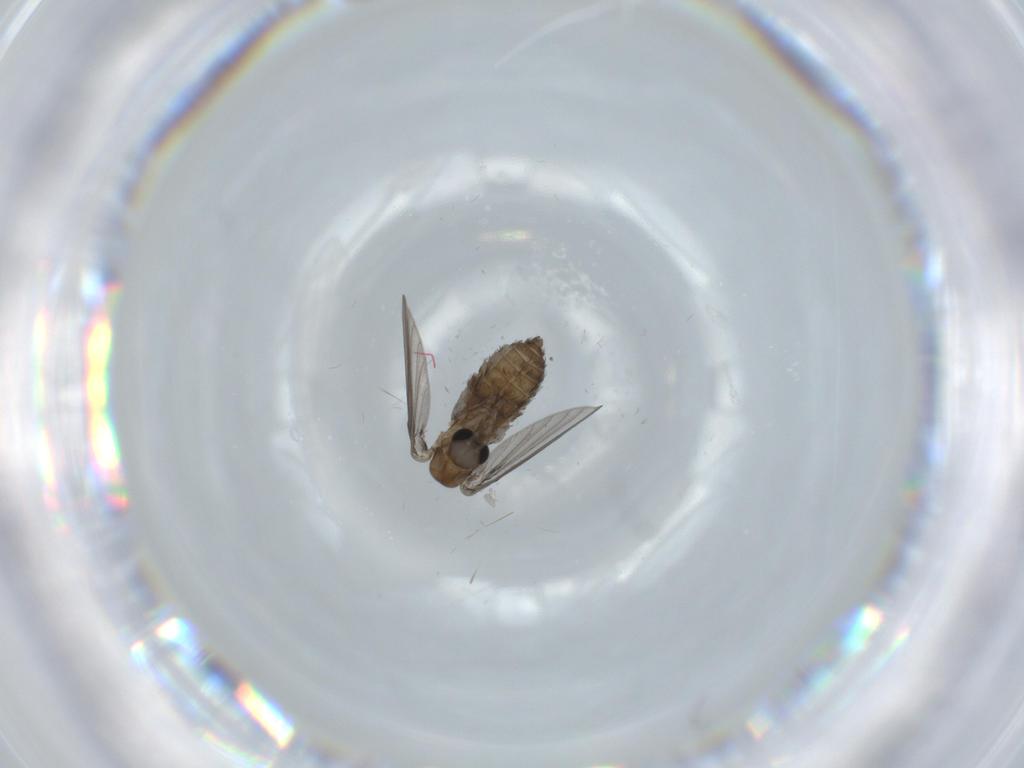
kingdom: Animalia
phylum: Arthropoda
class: Insecta
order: Diptera
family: Psychodidae
